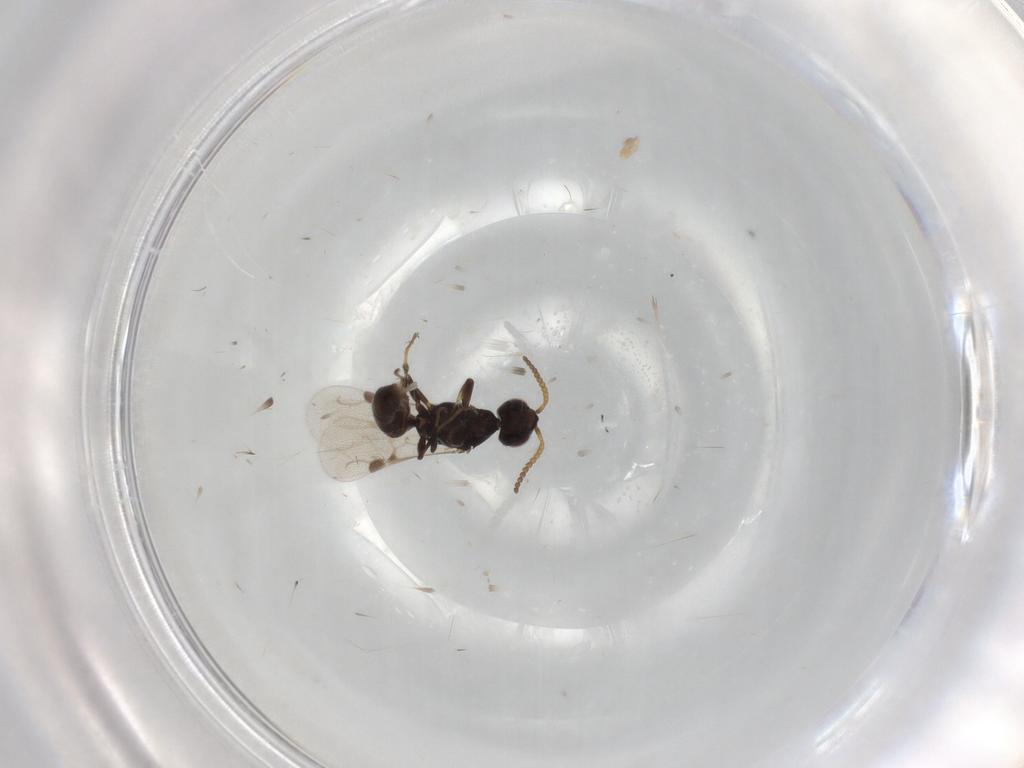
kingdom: Animalia
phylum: Arthropoda
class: Insecta
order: Hymenoptera
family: Bethylidae
